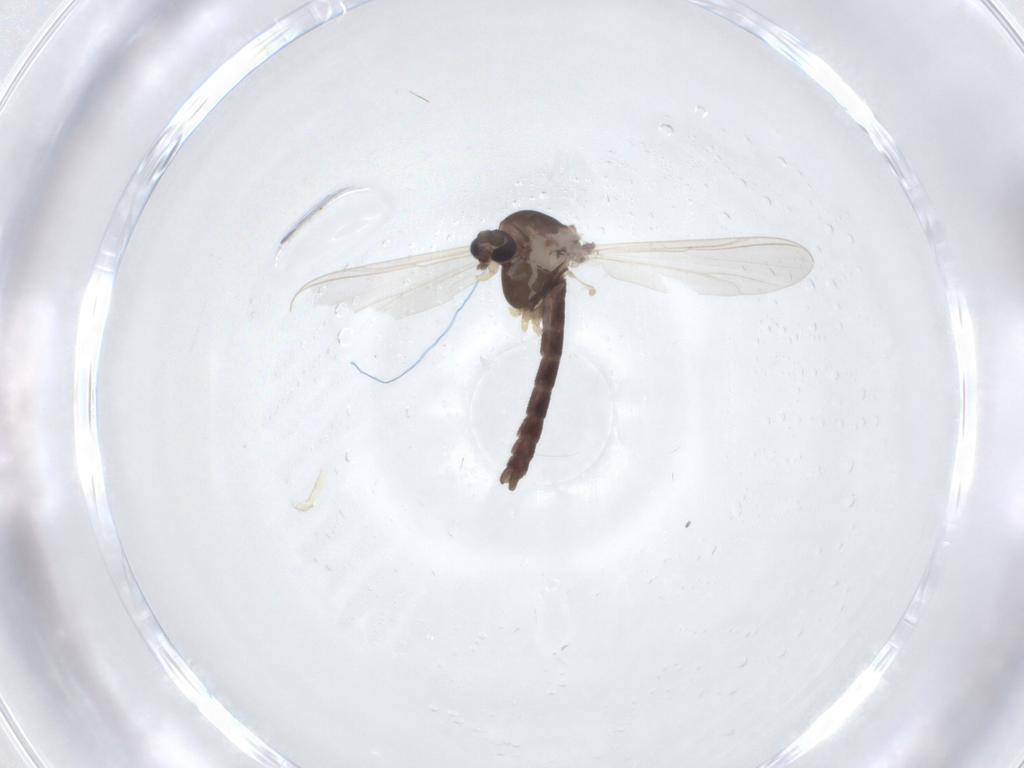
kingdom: Animalia
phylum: Arthropoda
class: Insecta
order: Diptera
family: Chironomidae
